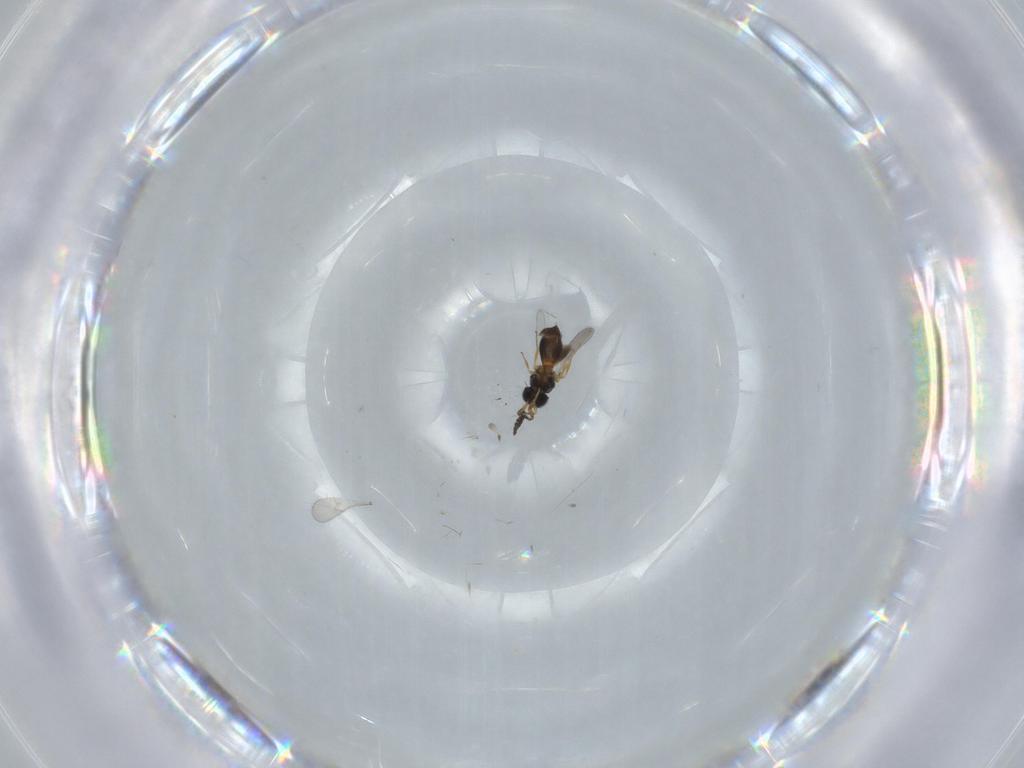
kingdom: Animalia
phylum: Arthropoda
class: Insecta
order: Hymenoptera
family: Scelionidae
